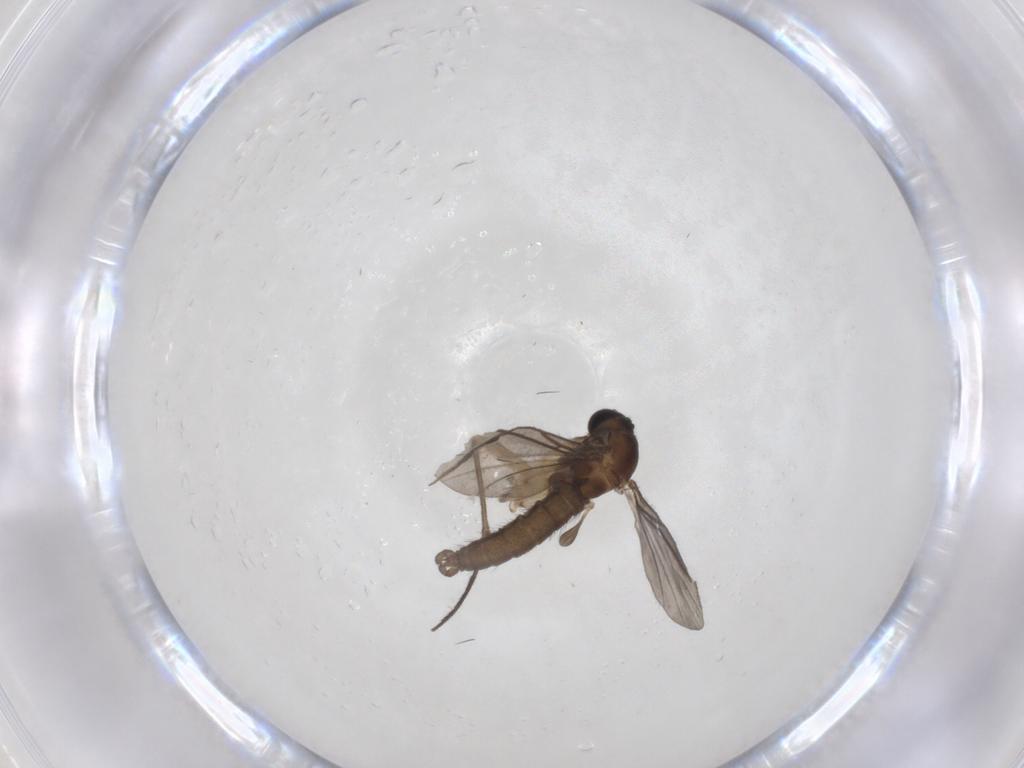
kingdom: Animalia
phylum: Arthropoda
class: Insecta
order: Diptera
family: Sciaridae
